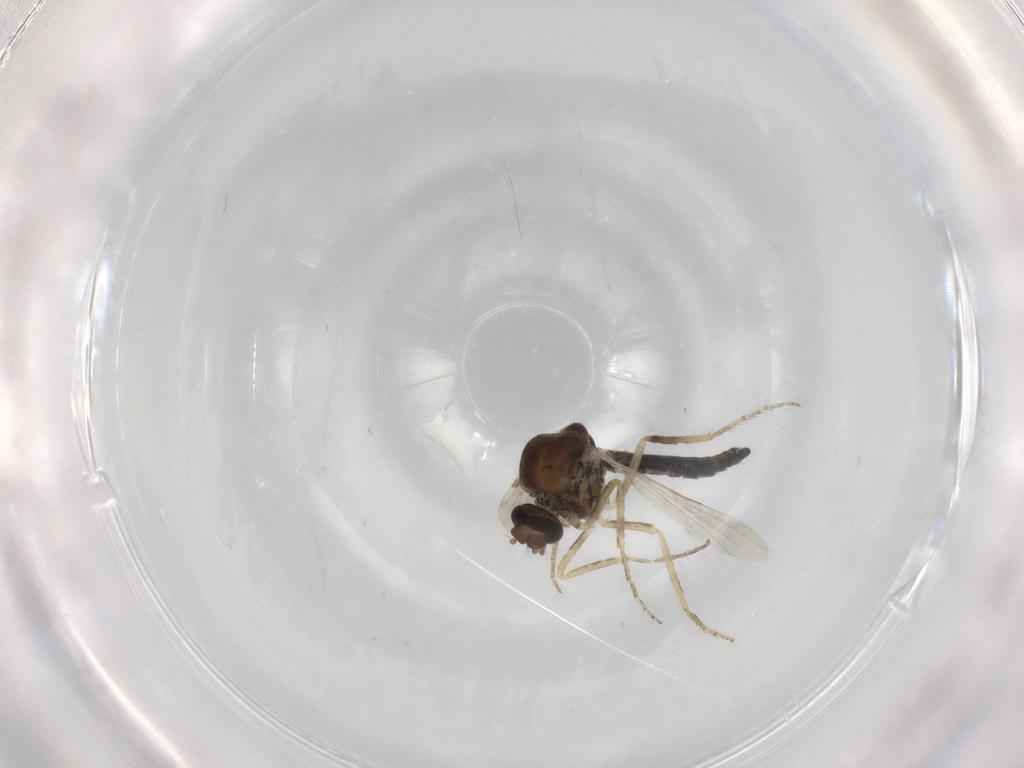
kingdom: Animalia
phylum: Arthropoda
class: Insecta
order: Diptera
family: Ceratopogonidae
